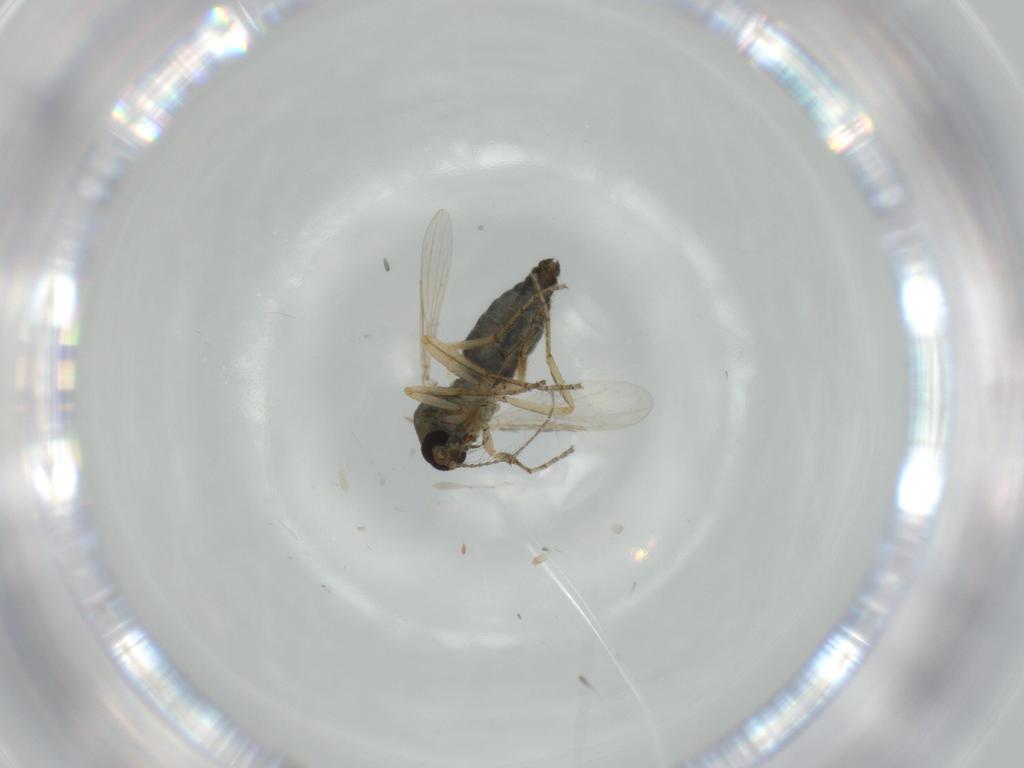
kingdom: Animalia
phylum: Arthropoda
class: Insecta
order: Diptera
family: Ceratopogonidae
